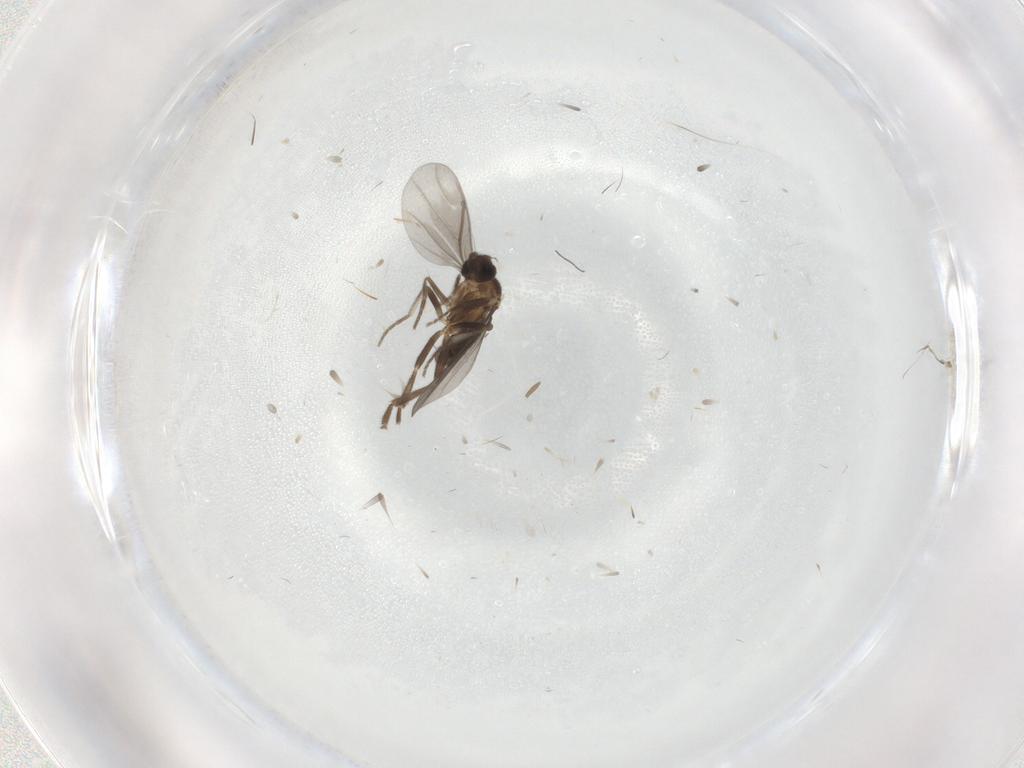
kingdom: Animalia
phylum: Arthropoda
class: Insecta
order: Diptera
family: Phoridae
